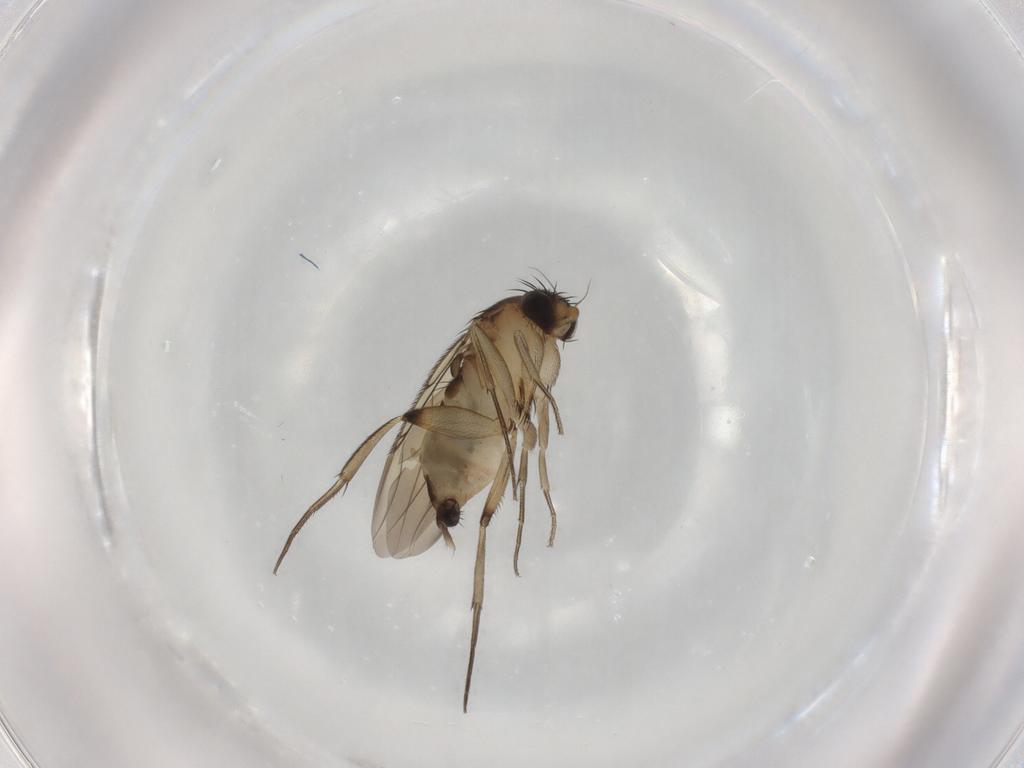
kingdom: Animalia
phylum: Arthropoda
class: Insecta
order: Diptera
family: Phoridae
